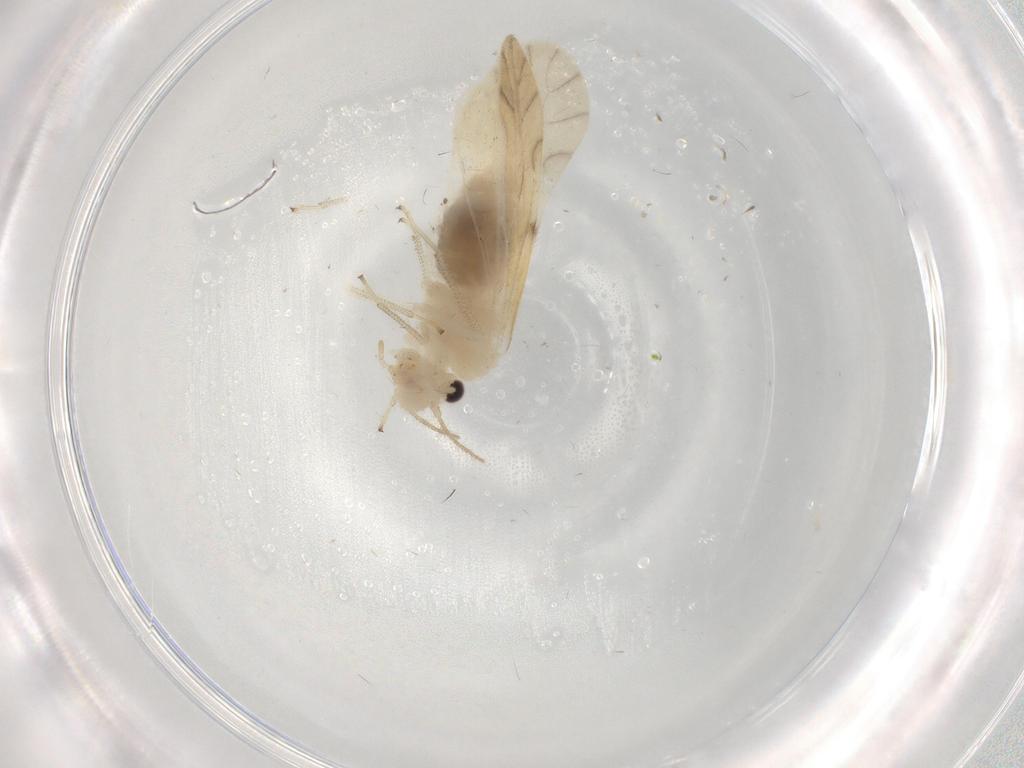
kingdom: Animalia
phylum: Arthropoda
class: Insecta
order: Psocodea
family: Caeciliusidae
